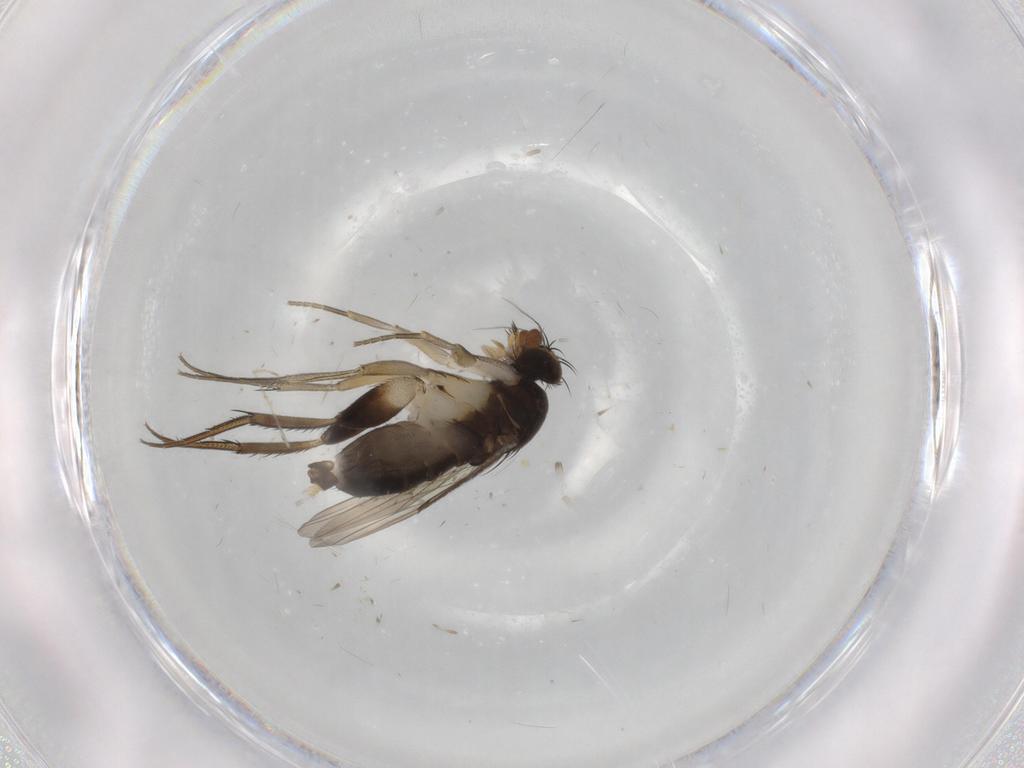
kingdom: Animalia
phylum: Arthropoda
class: Insecta
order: Diptera
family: Phoridae
